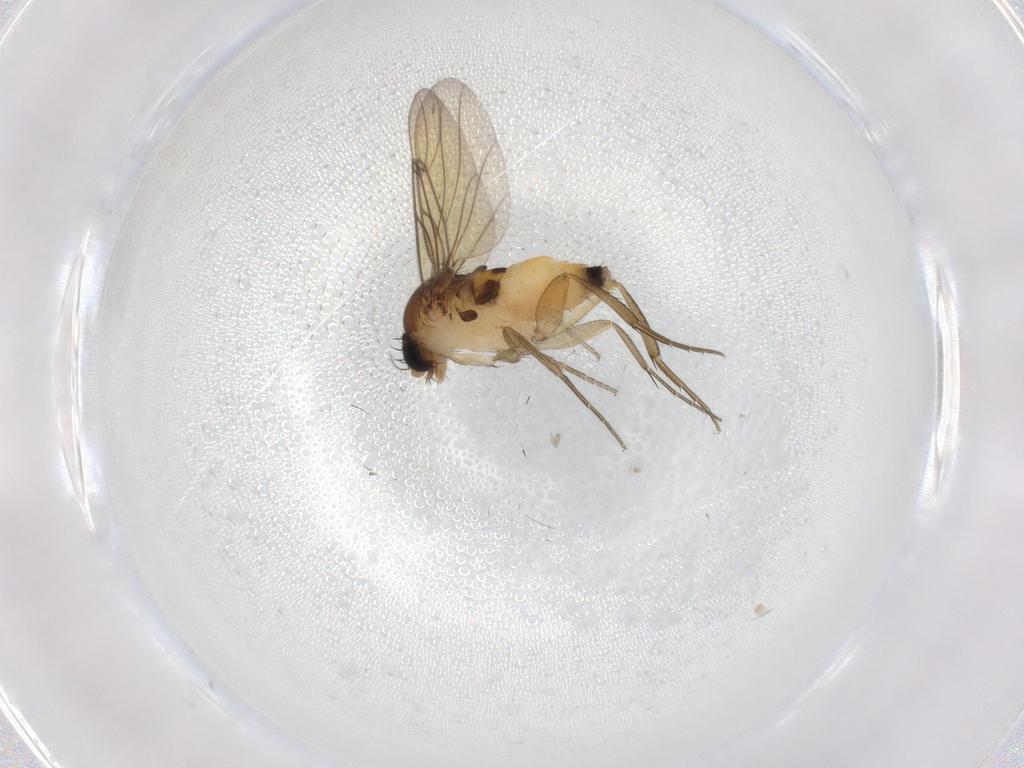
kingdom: Animalia
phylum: Arthropoda
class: Insecta
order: Diptera
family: Mycetophilidae
